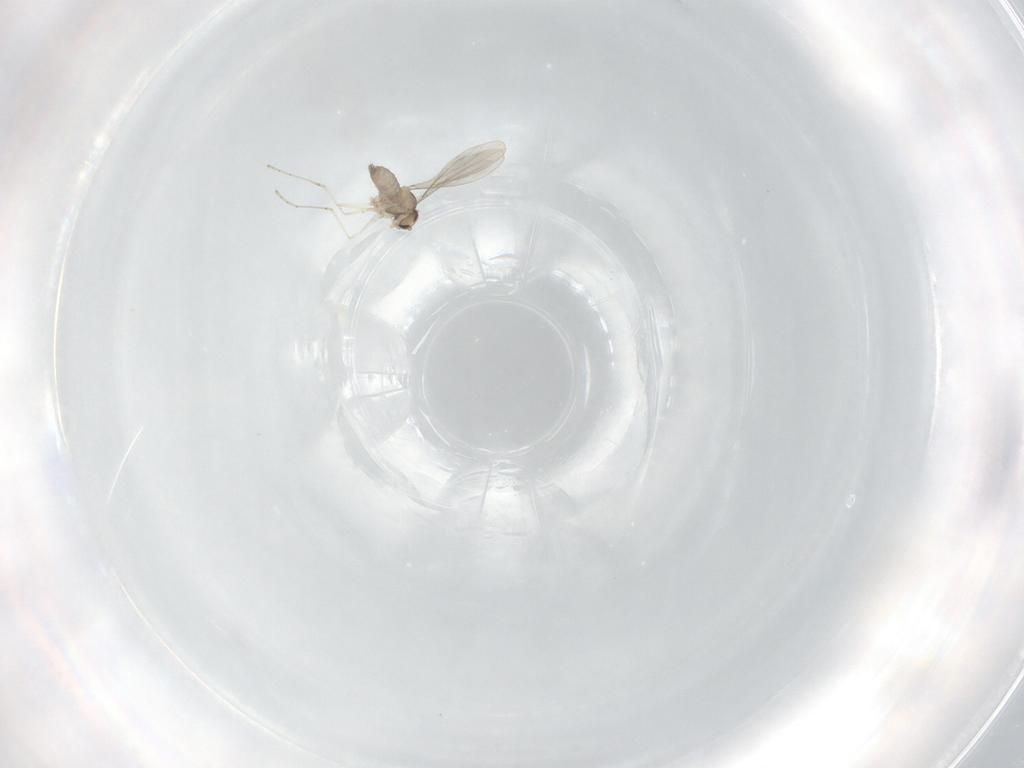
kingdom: Animalia
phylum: Arthropoda
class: Insecta
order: Diptera
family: Cecidomyiidae
